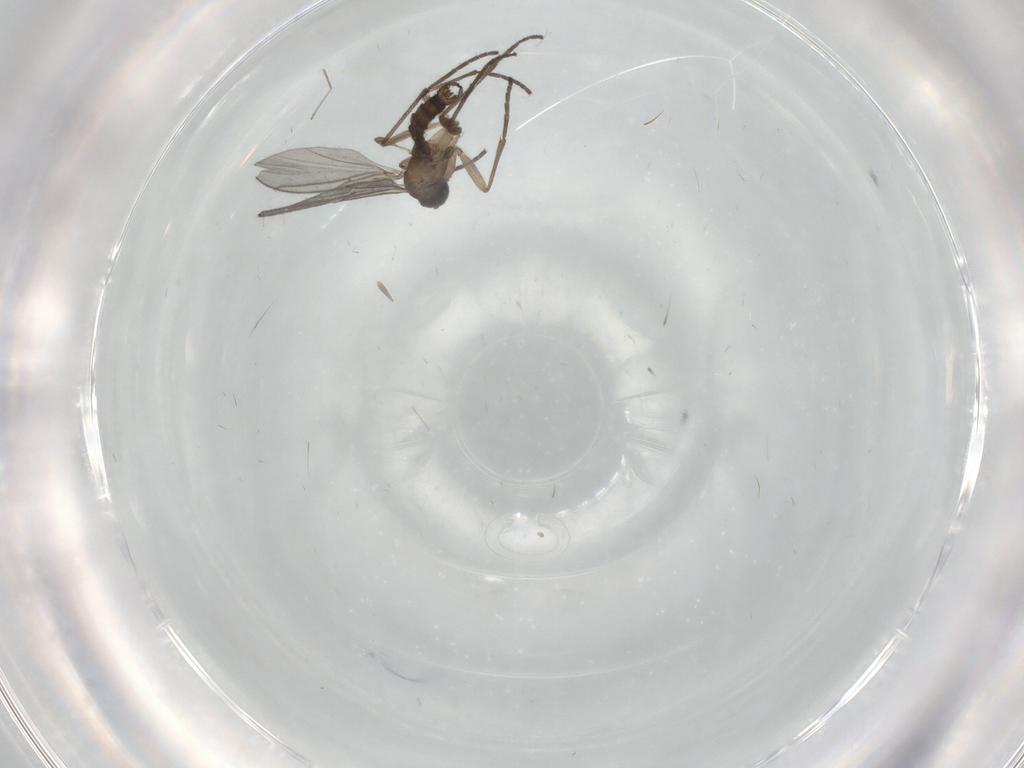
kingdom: Animalia
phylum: Arthropoda
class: Insecta
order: Diptera
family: Sciaridae
